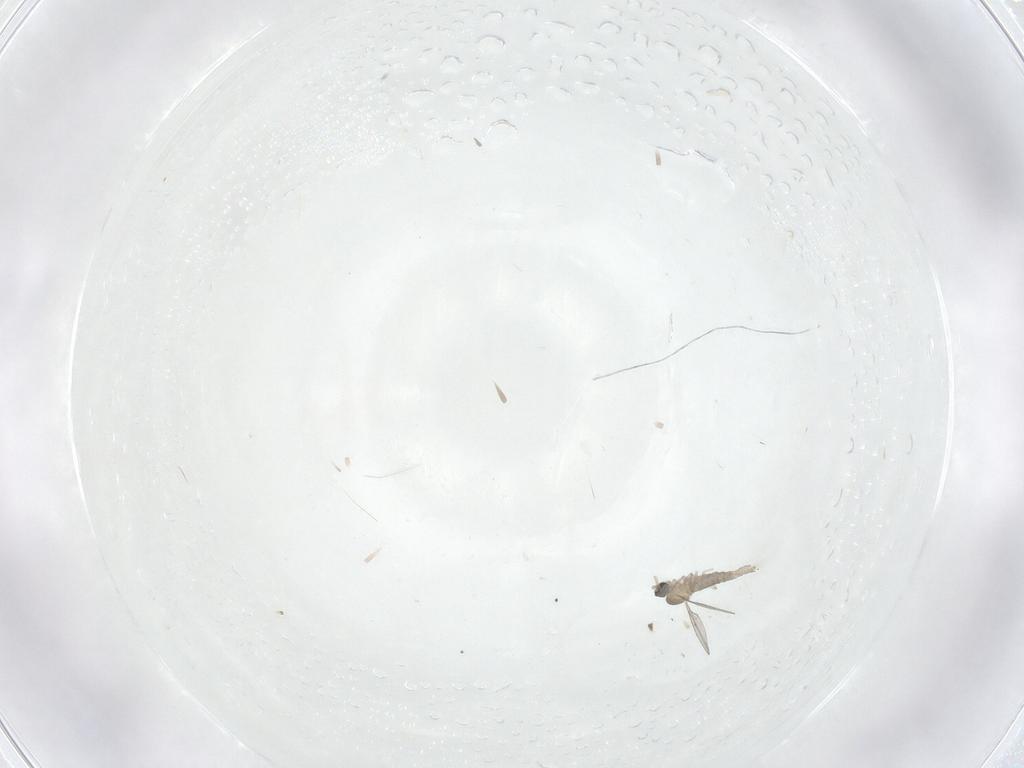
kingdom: Animalia
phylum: Arthropoda
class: Insecta
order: Diptera
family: Cecidomyiidae
